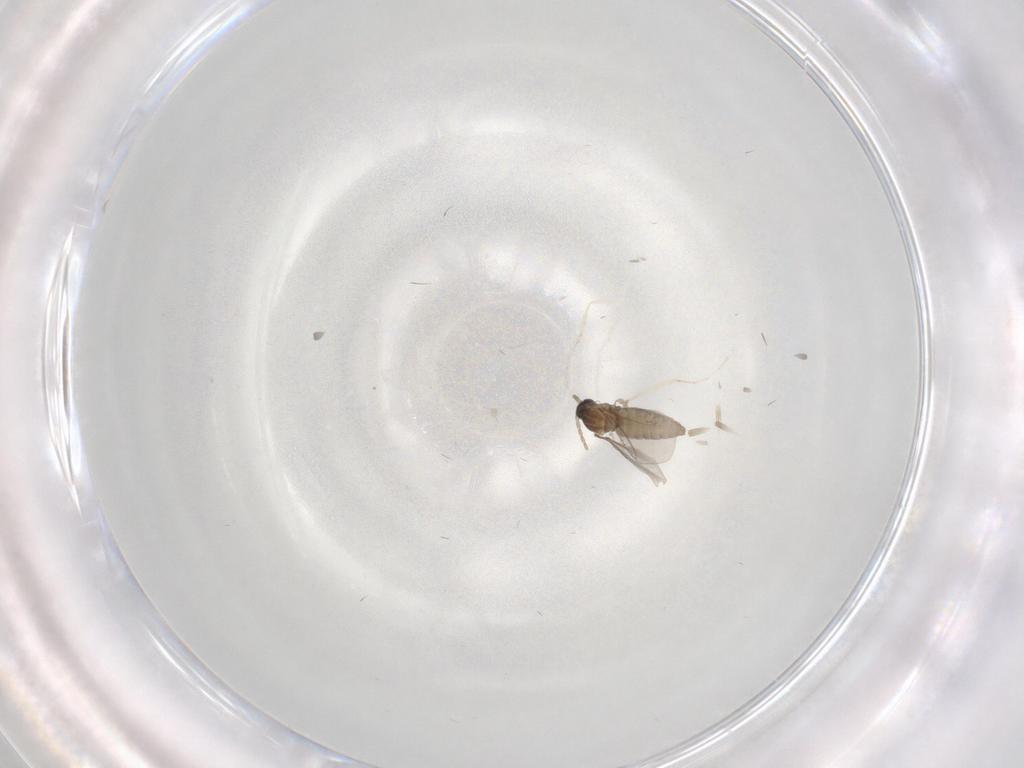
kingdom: Animalia
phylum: Arthropoda
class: Insecta
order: Diptera
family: Cecidomyiidae
